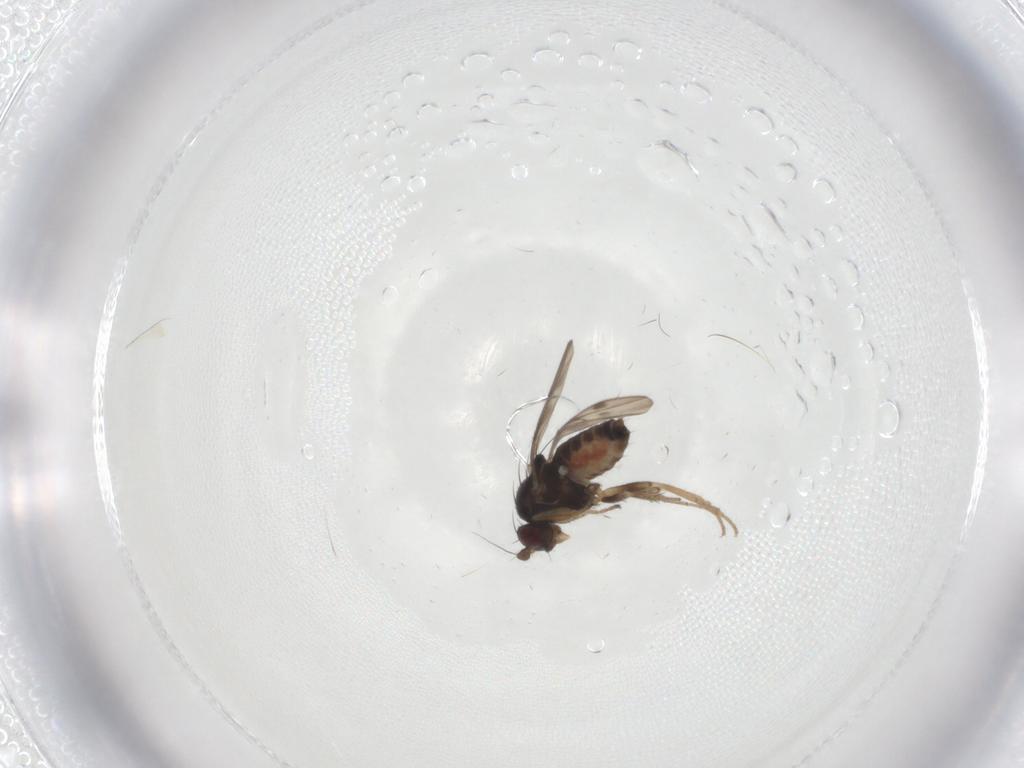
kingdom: Animalia
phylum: Arthropoda
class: Insecta
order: Diptera
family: Sphaeroceridae
